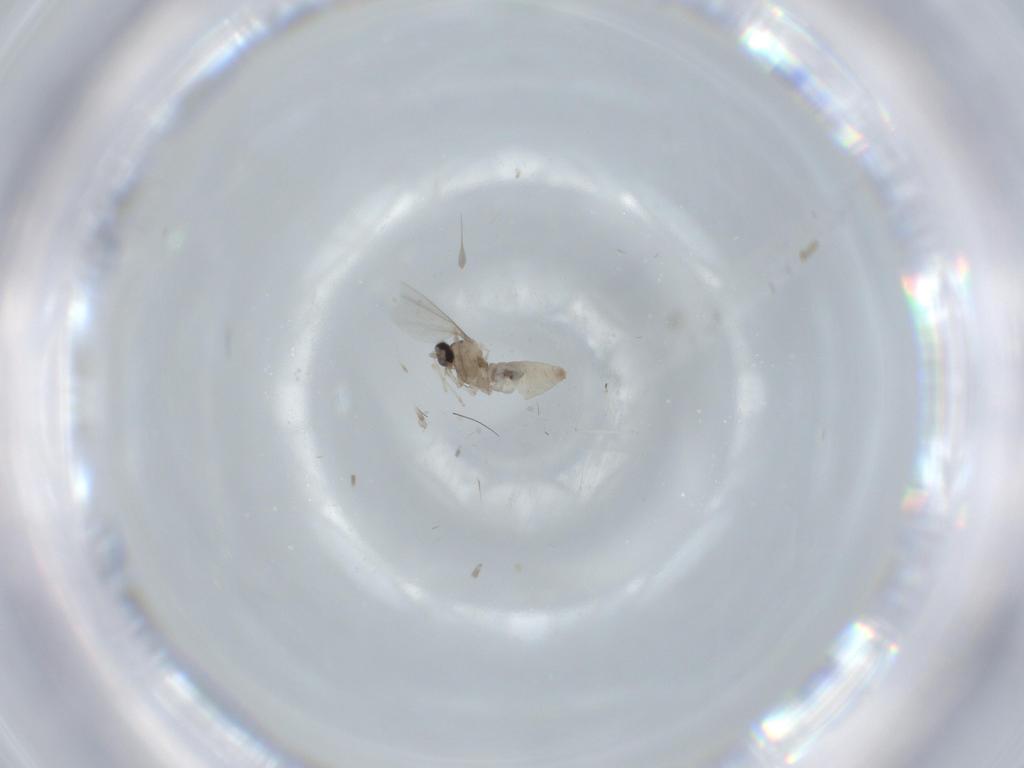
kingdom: Animalia
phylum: Arthropoda
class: Insecta
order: Diptera
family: Cecidomyiidae
